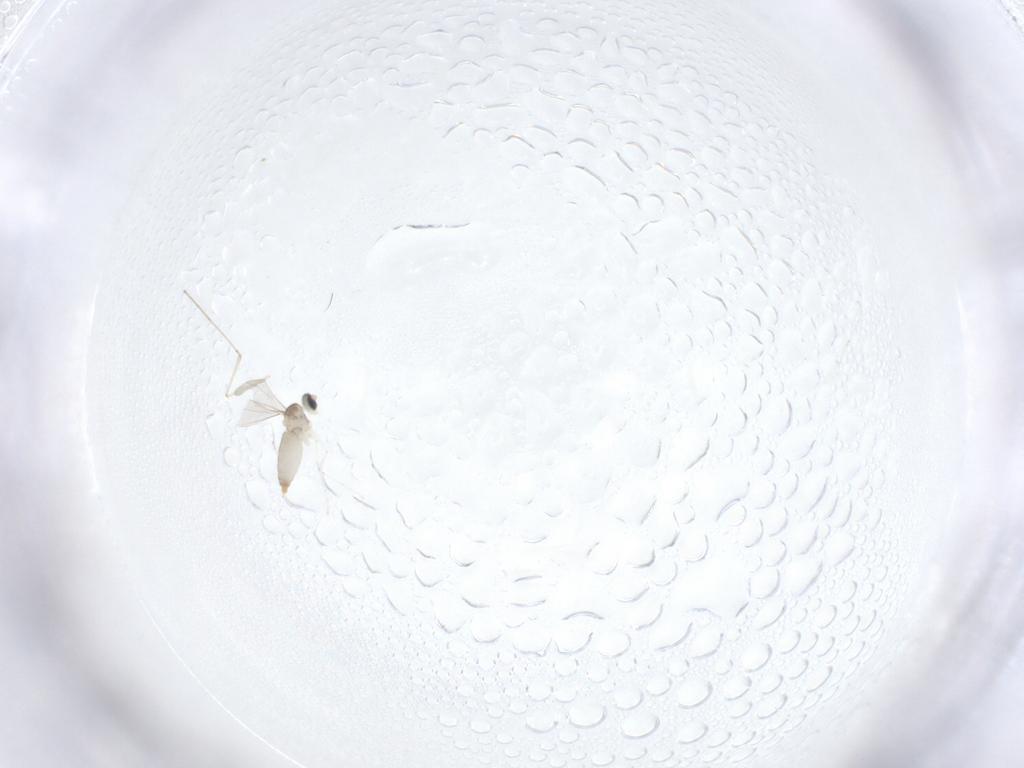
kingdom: Animalia
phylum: Arthropoda
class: Insecta
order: Diptera
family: Cecidomyiidae
